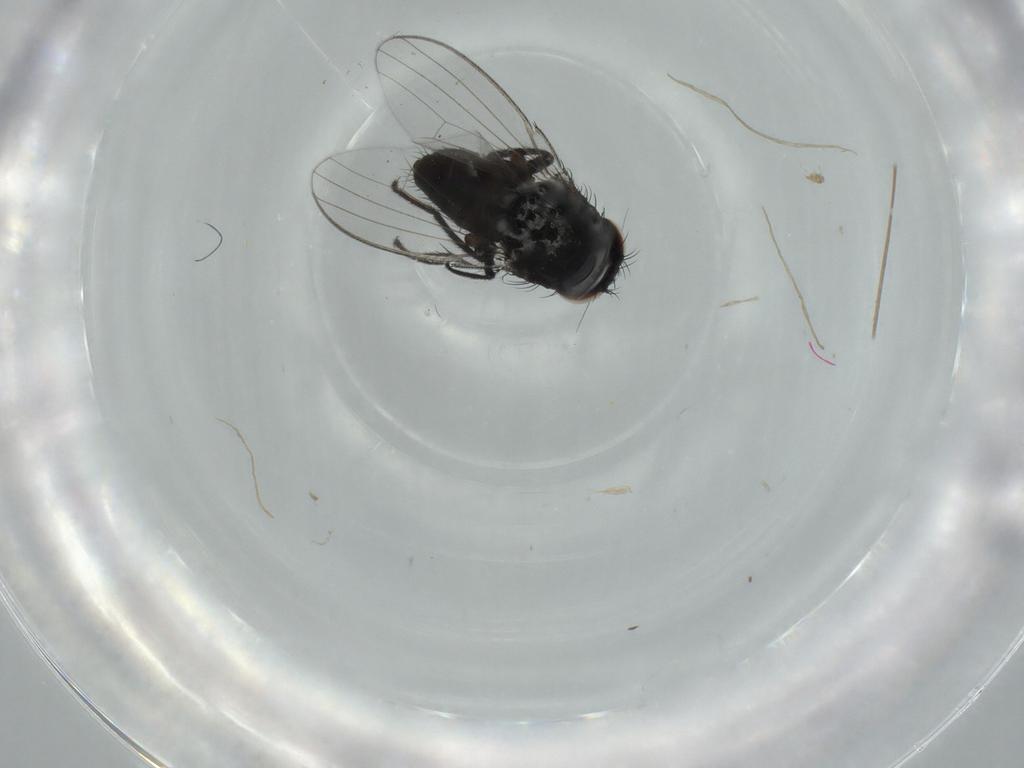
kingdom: Animalia
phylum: Arthropoda
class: Insecta
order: Diptera
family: Milichiidae
